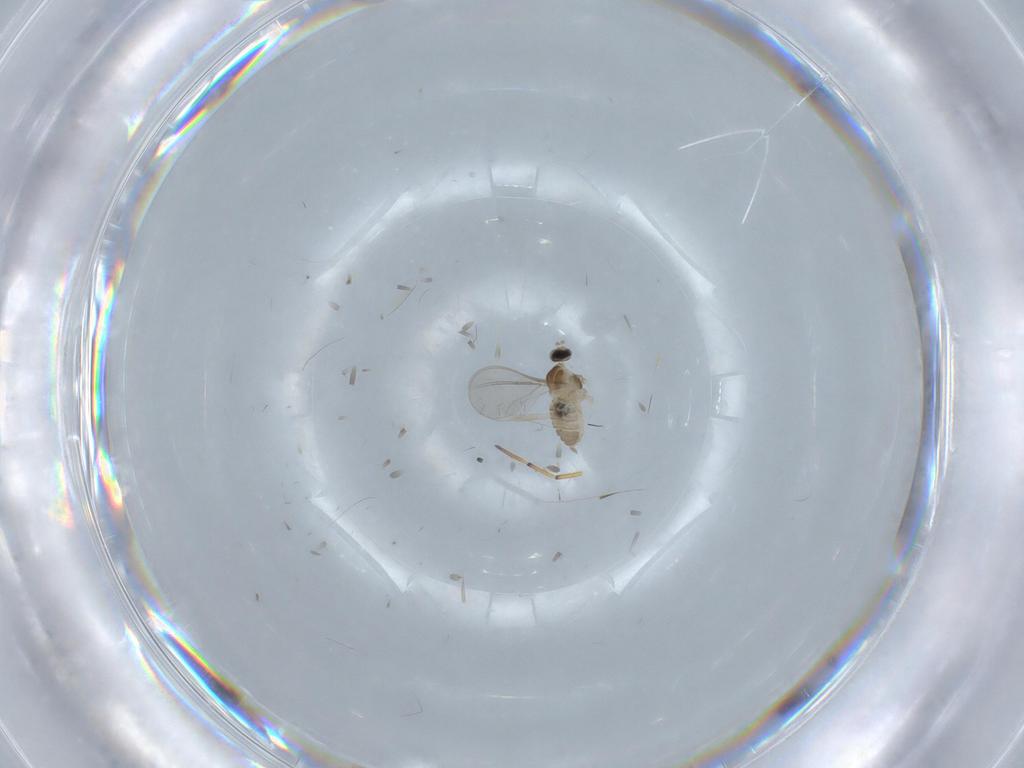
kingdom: Animalia
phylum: Arthropoda
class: Insecta
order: Diptera
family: Cecidomyiidae
